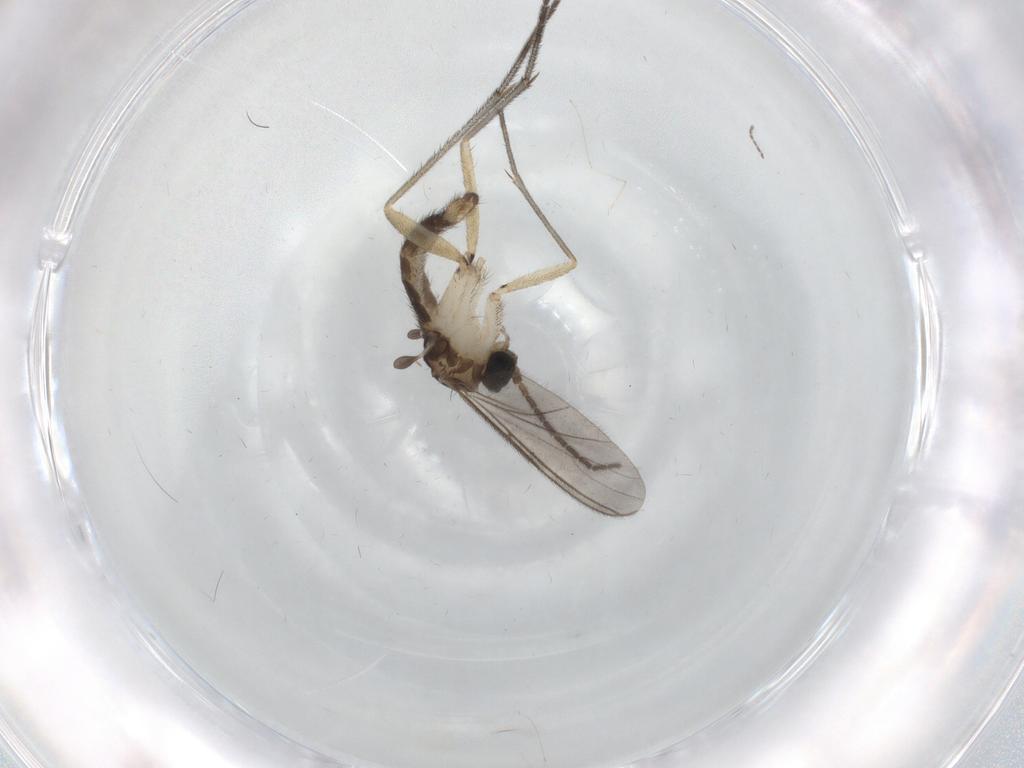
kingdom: Animalia
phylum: Arthropoda
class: Insecta
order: Diptera
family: Sciaridae
